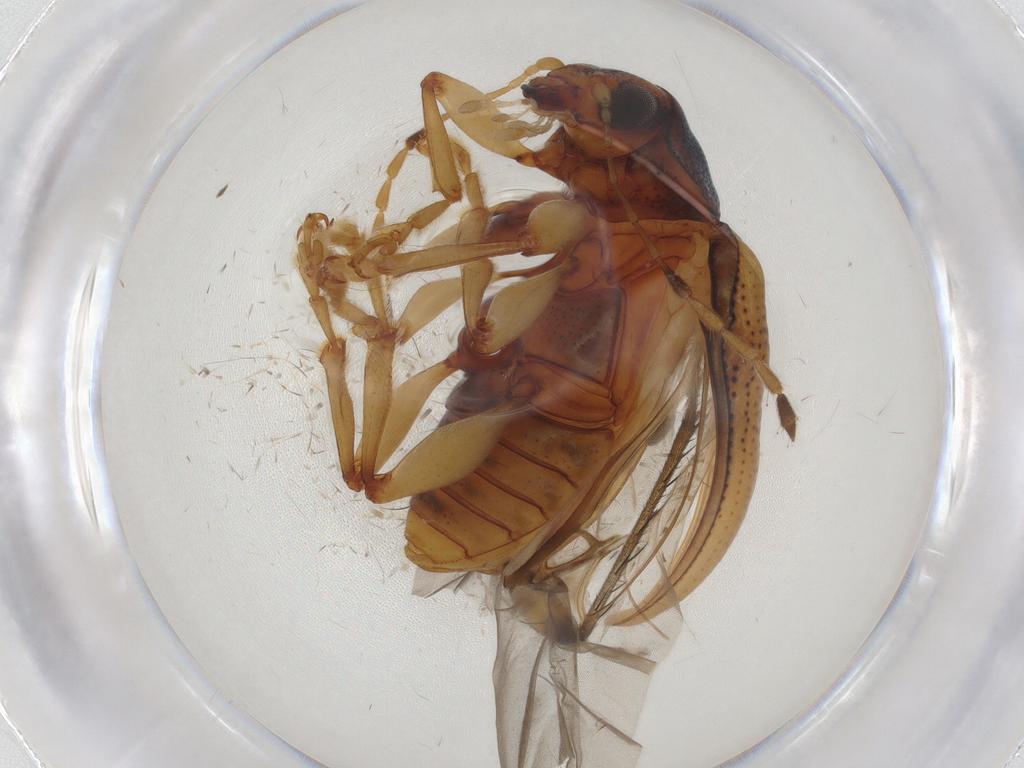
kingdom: Animalia
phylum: Arthropoda
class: Insecta
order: Coleoptera
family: Chrysomelidae
